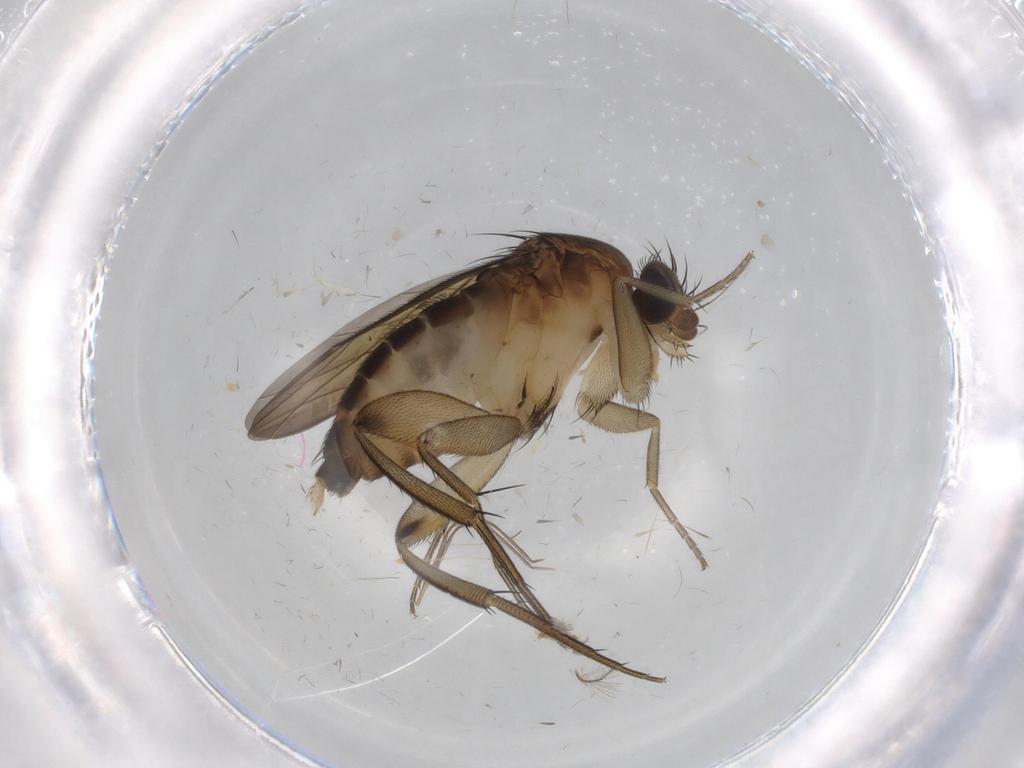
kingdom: Animalia
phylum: Arthropoda
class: Insecta
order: Diptera
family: Phoridae
